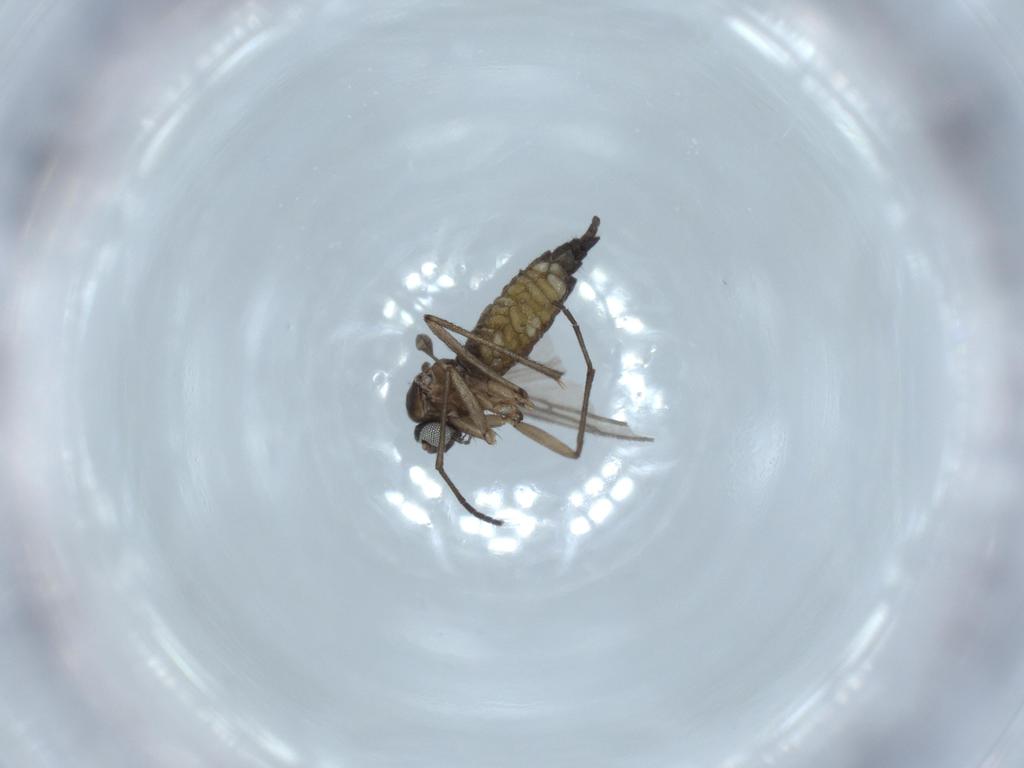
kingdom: Animalia
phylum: Arthropoda
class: Insecta
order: Diptera
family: Sciaridae
